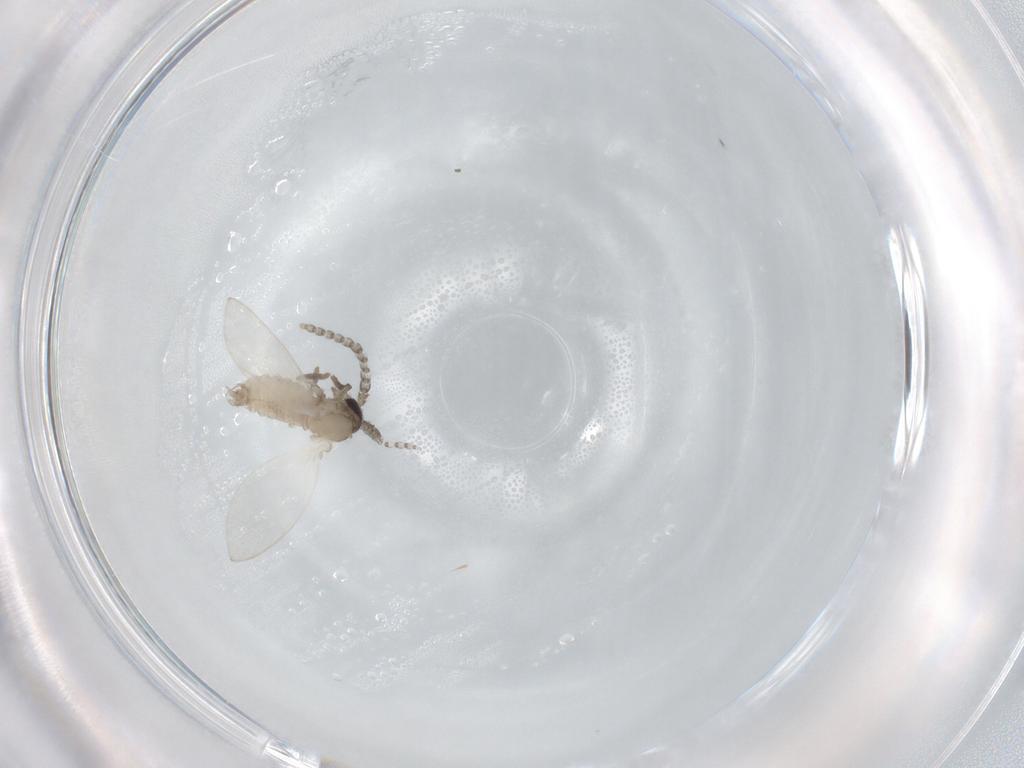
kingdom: Animalia
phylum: Arthropoda
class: Insecta
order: Diptera
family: Psychodidae
